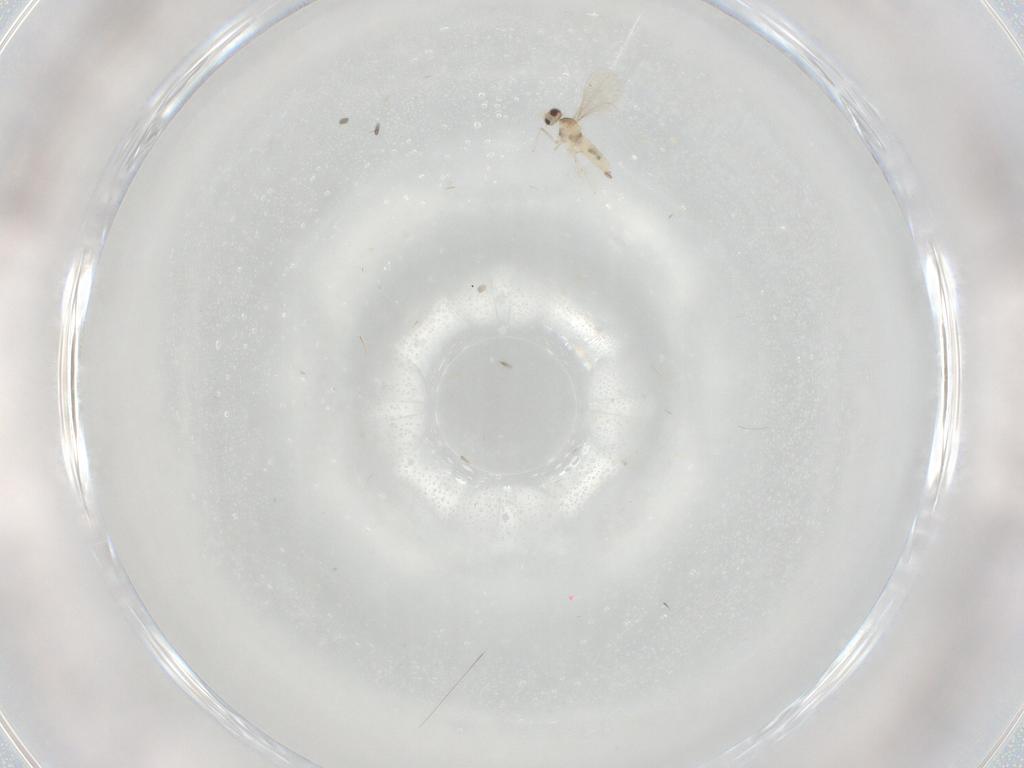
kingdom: Animalia
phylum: Arthropoda
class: Insecta
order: Diptera
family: Cecidomyiidae
